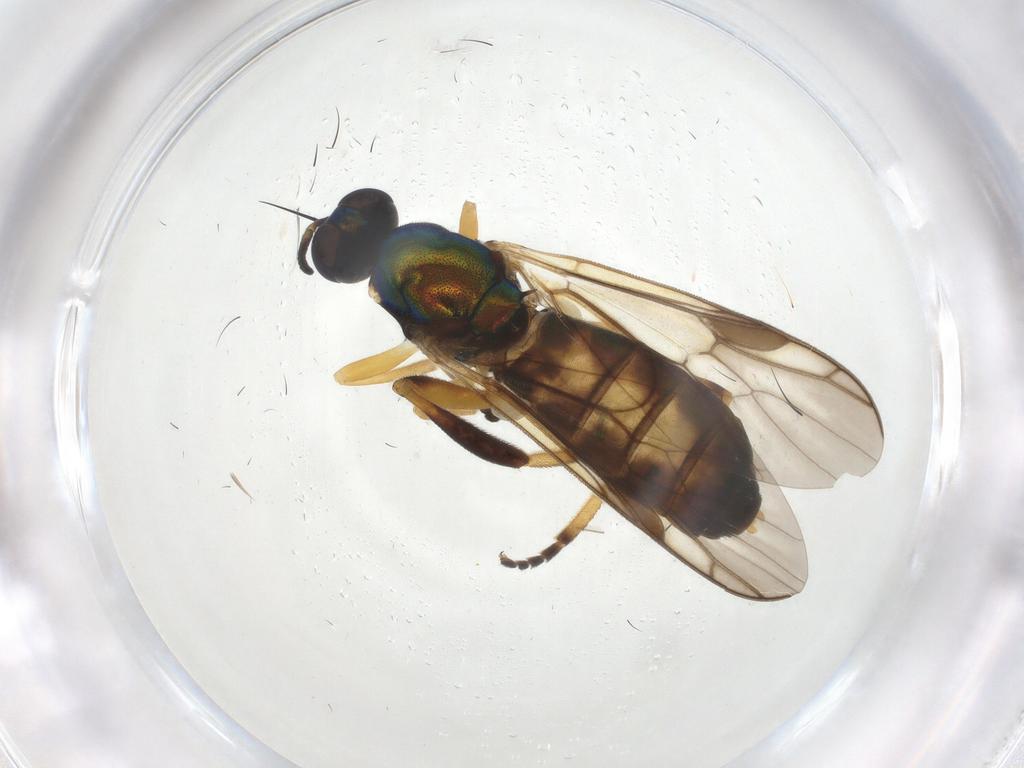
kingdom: Animalia
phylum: Arthropoda
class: Insecta
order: Diptera
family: Stratiomyidae
